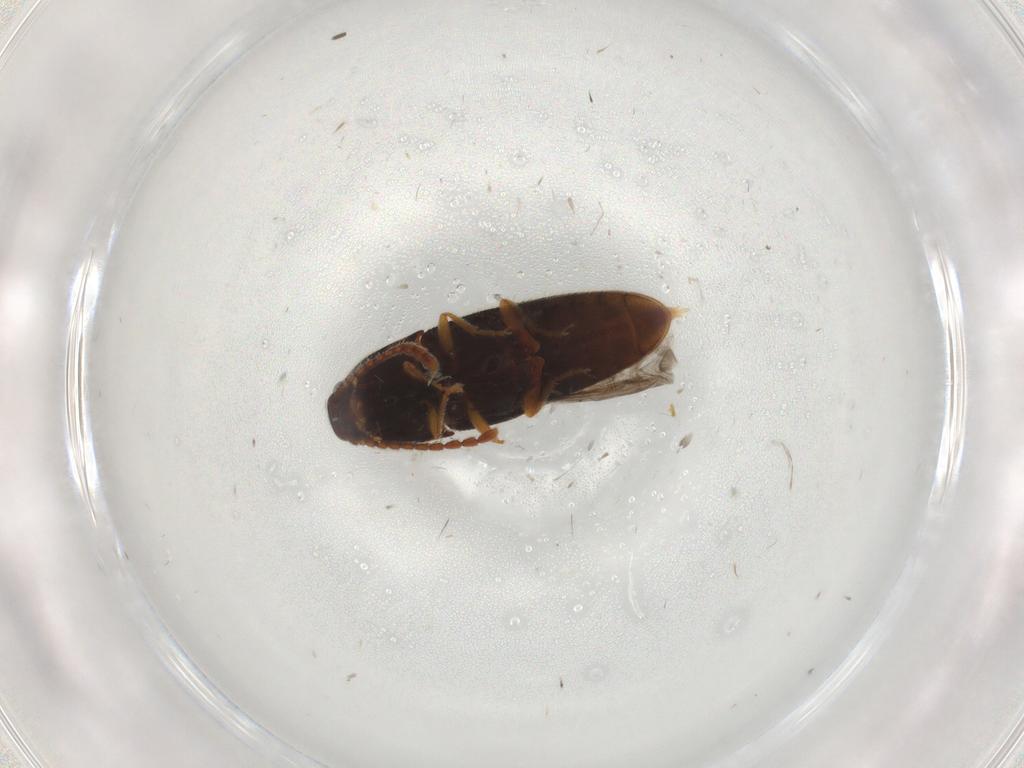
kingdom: Animalia
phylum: Arthropoda
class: Insecta
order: Coleoptera
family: Elateridae
